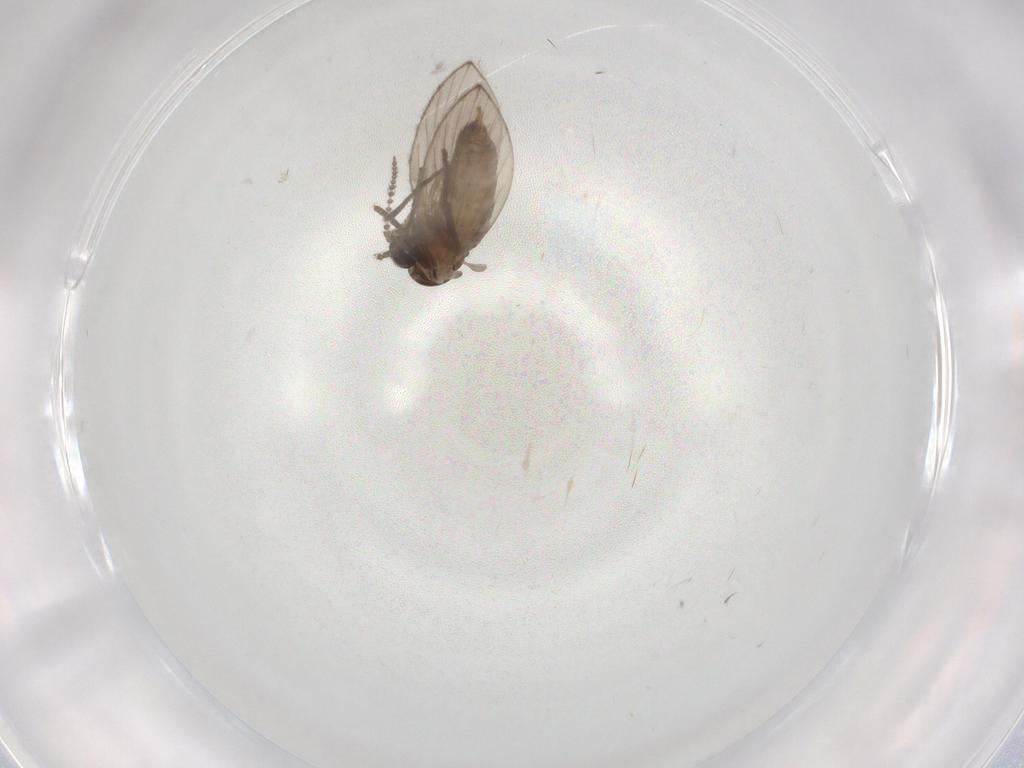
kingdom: Animalia
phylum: Arthropoda
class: Insecta
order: Diptera
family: Psychodidae
